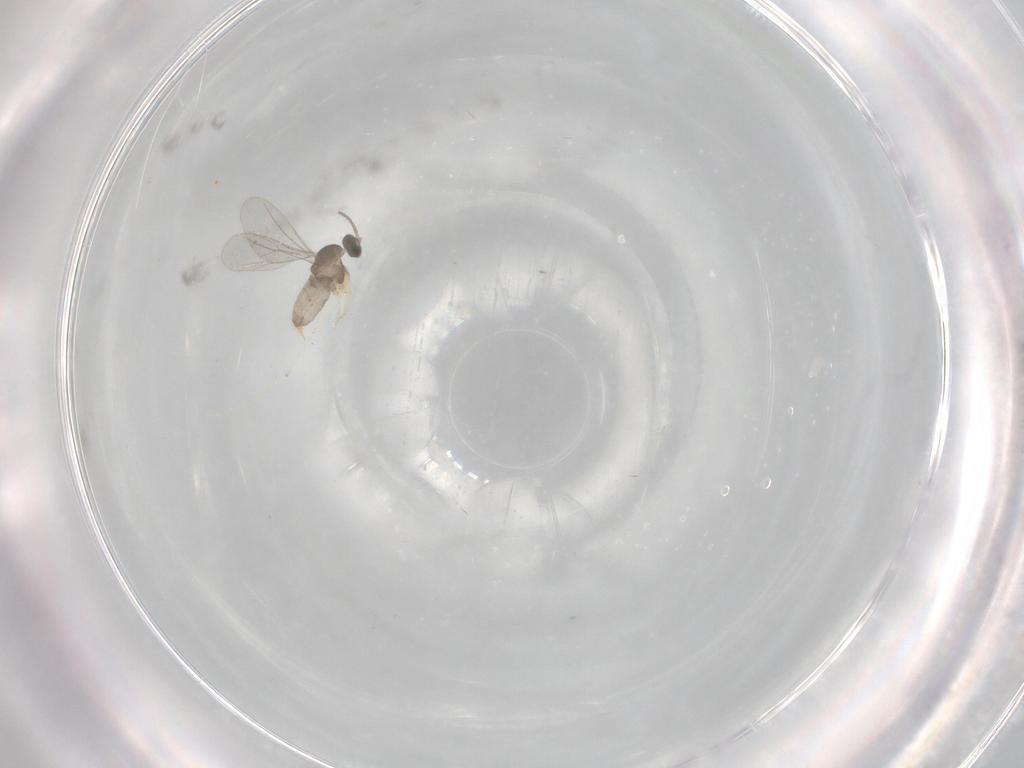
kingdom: Animalia
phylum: Arthropoda
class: Insecta
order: Diptera
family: Cecidomyiidae
